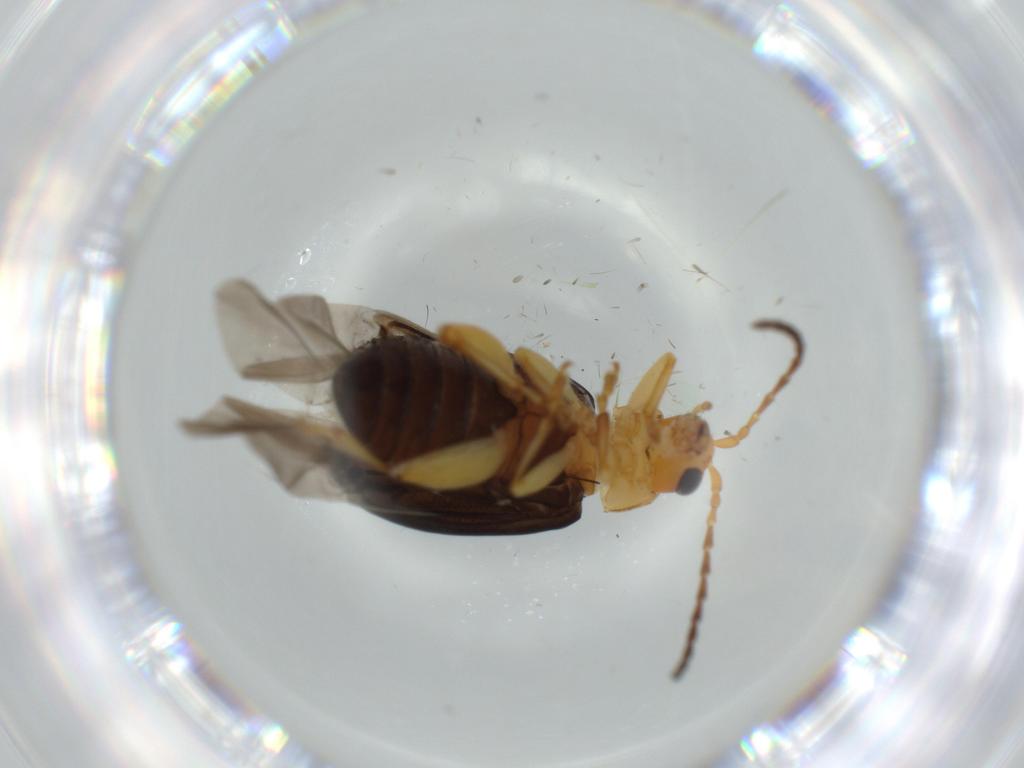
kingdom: Animalia
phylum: Arthropoda
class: Insecta
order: Coleoptera
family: Chrysomelidae
